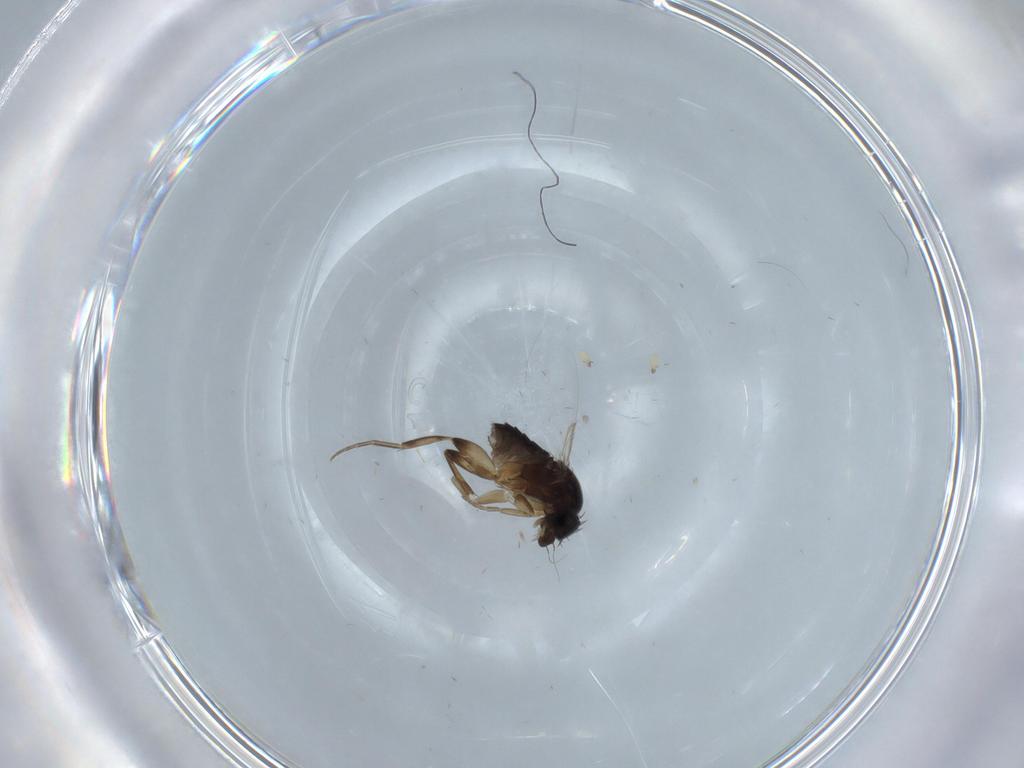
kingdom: Animalia
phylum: Arthropoda
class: Insecta
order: Diptera
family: Phoridae
